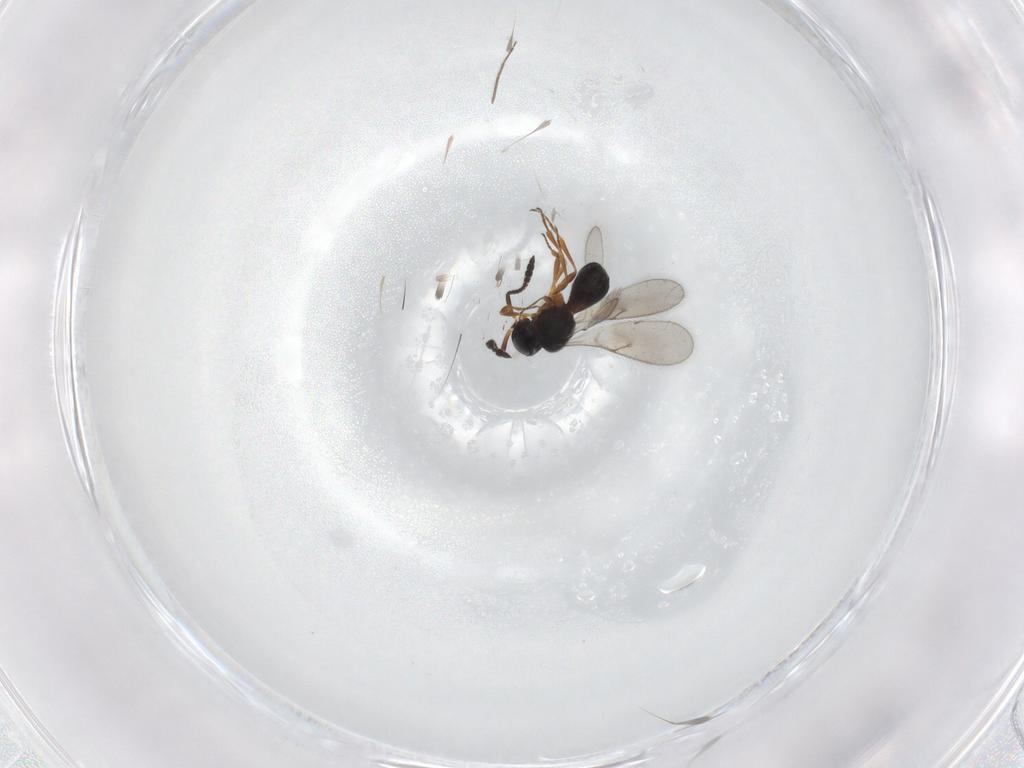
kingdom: Animalia
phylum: Arthropoda
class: Insecta
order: Hymenoptera
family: Scelionidae
